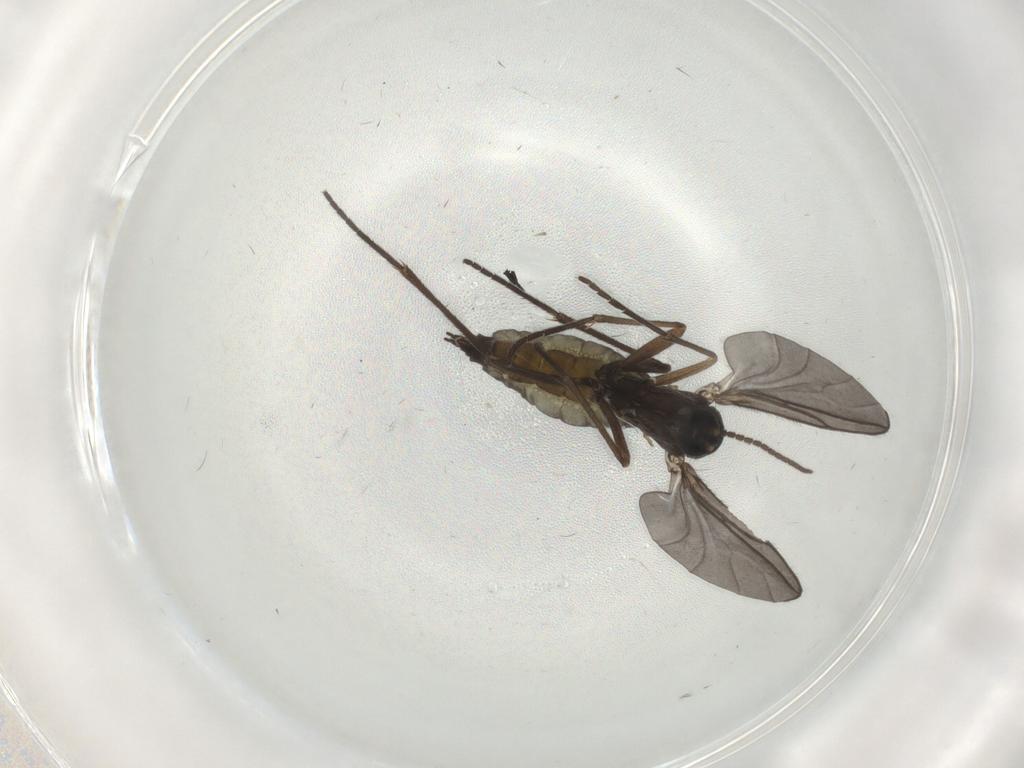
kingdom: Animalia
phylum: Arthropoda
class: Insecta
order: Diptera
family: Sciaridae
